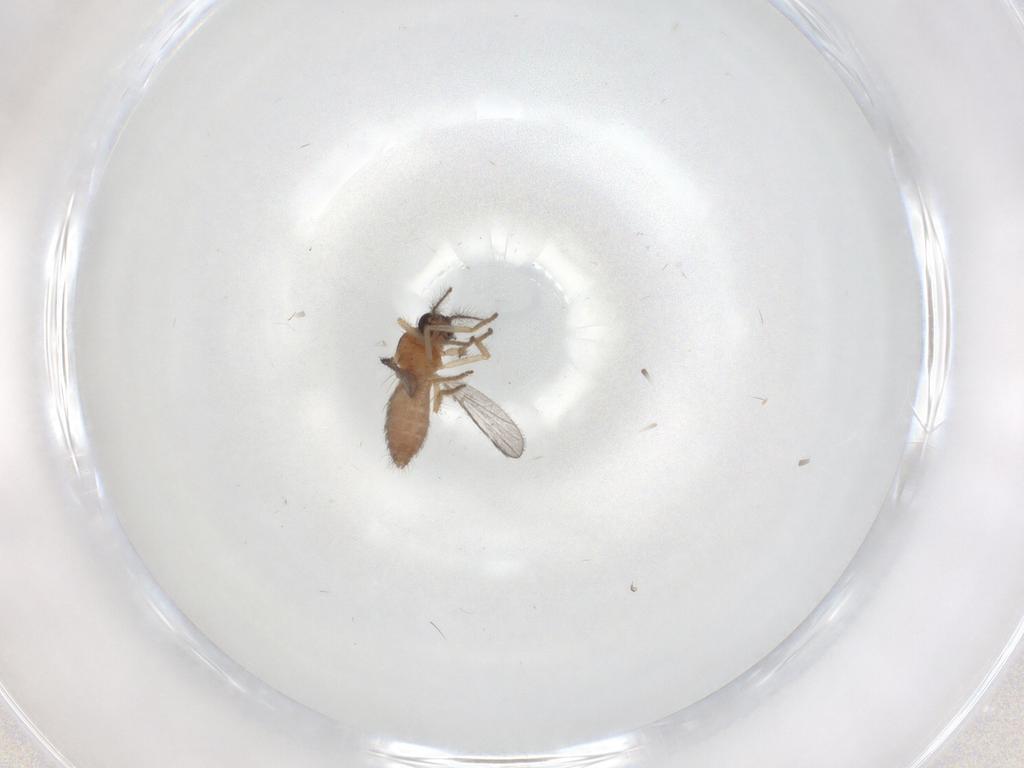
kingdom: Animalia
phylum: Arthropoda
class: Insecta
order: Diptera
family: Ceratopogonidae
